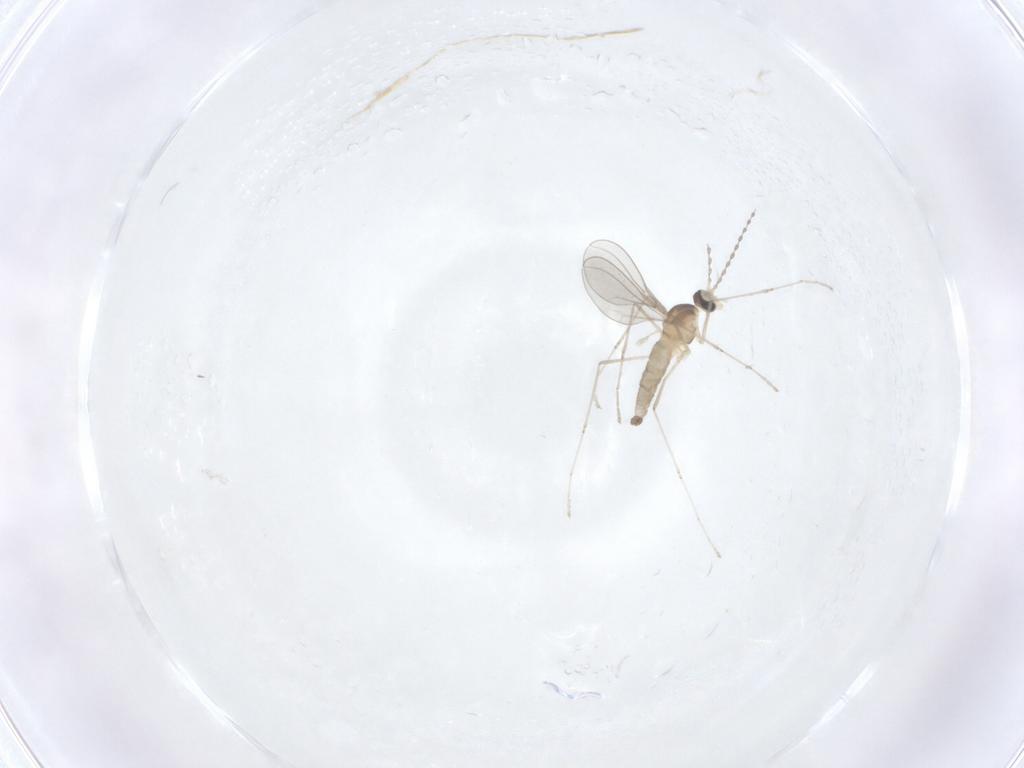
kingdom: Animalia
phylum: Arthropoda
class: Insecta
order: Diptera
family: Cecidomyiidae
